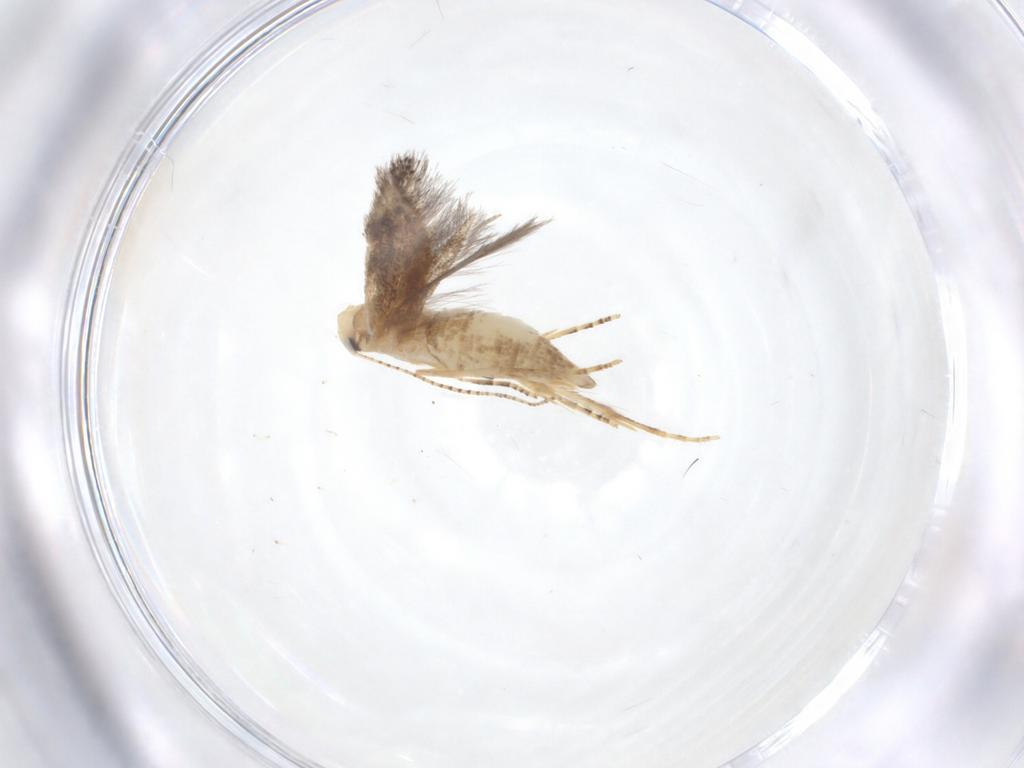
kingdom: Animalia
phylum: Arthropoda
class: Insecta
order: Lepidoptera
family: Bucculatricidae
